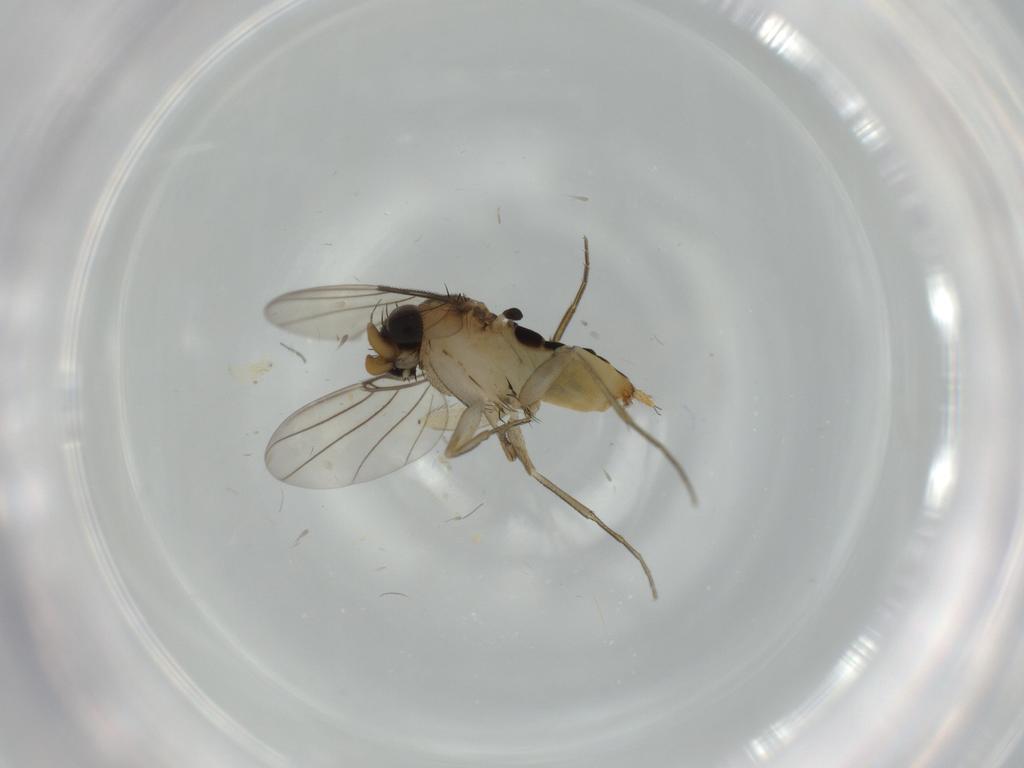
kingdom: Animalia
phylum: Arthropoda
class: Insecta
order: Diptera
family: Phoridae
